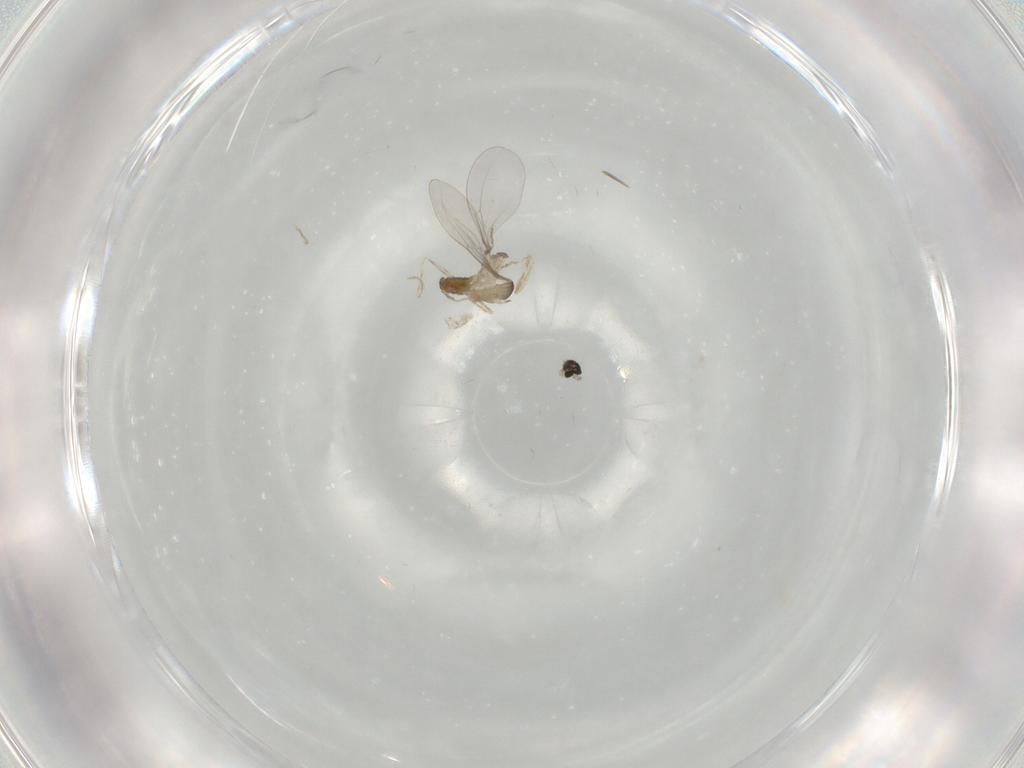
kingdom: Animalia
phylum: Arthropoda
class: Insecta
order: Diptera
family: Cecidomyiidae
